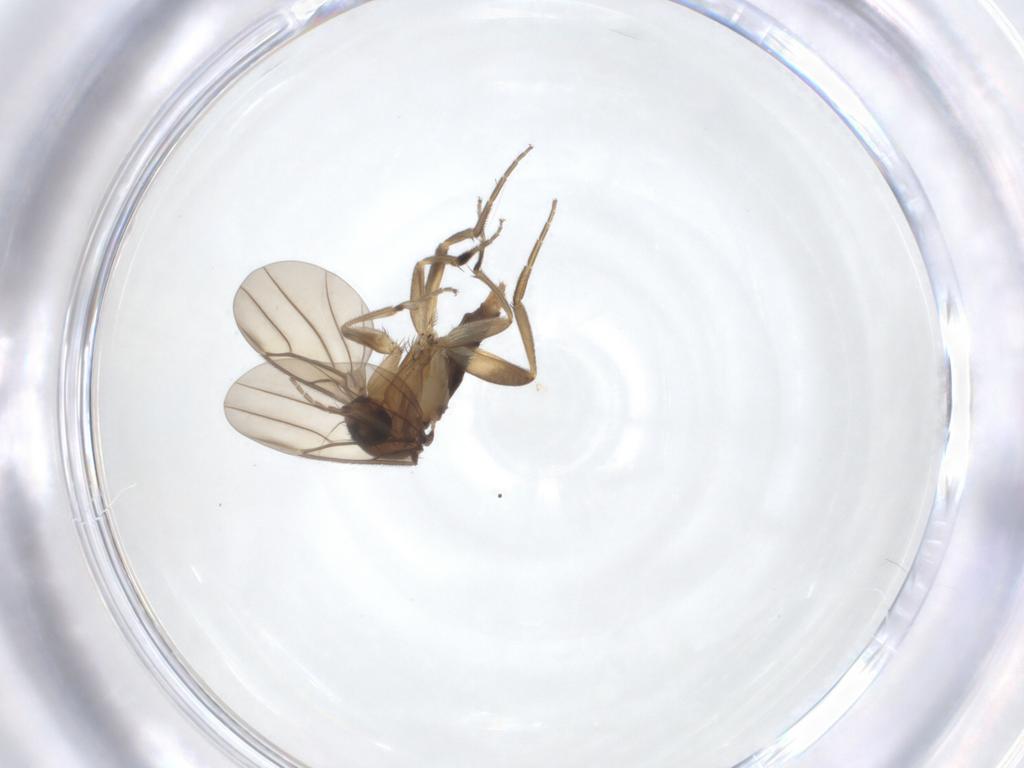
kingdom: Animalia
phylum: Arthropoda
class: Insecta
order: Diptera
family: Phoridae
